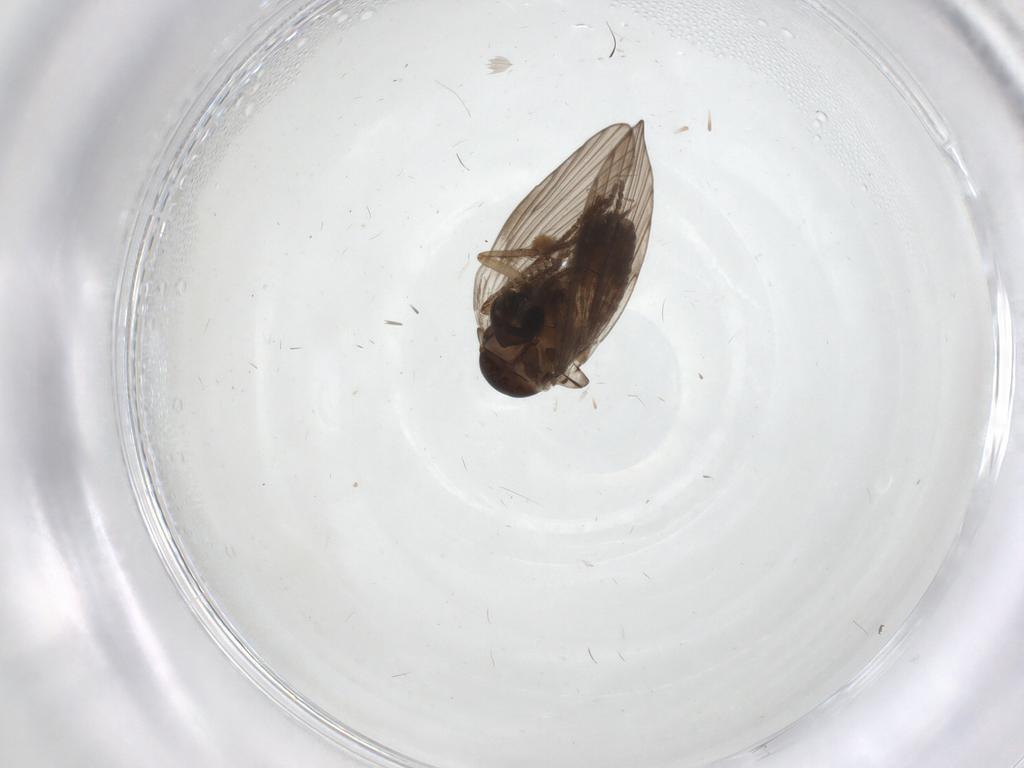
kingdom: Animalia
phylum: Arthropoda
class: Insecta
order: Diptera
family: Psychodidae
